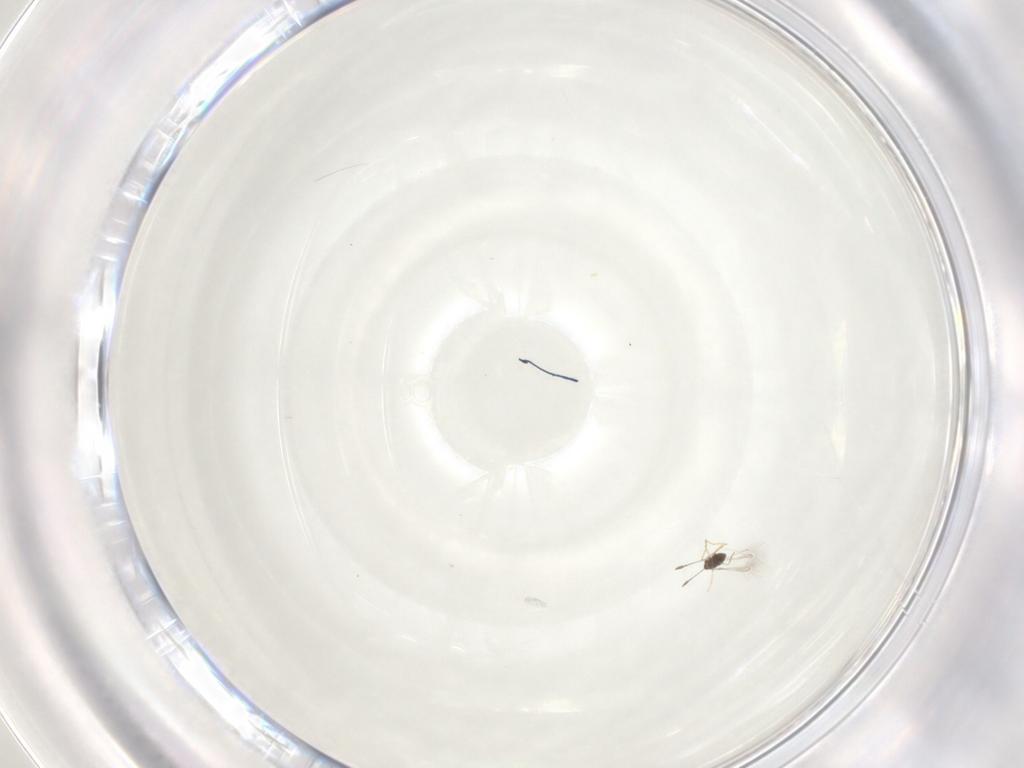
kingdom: Animalia
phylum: Arthropoda
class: Collembola
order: Entomobryomorpha
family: Entomobryidae
